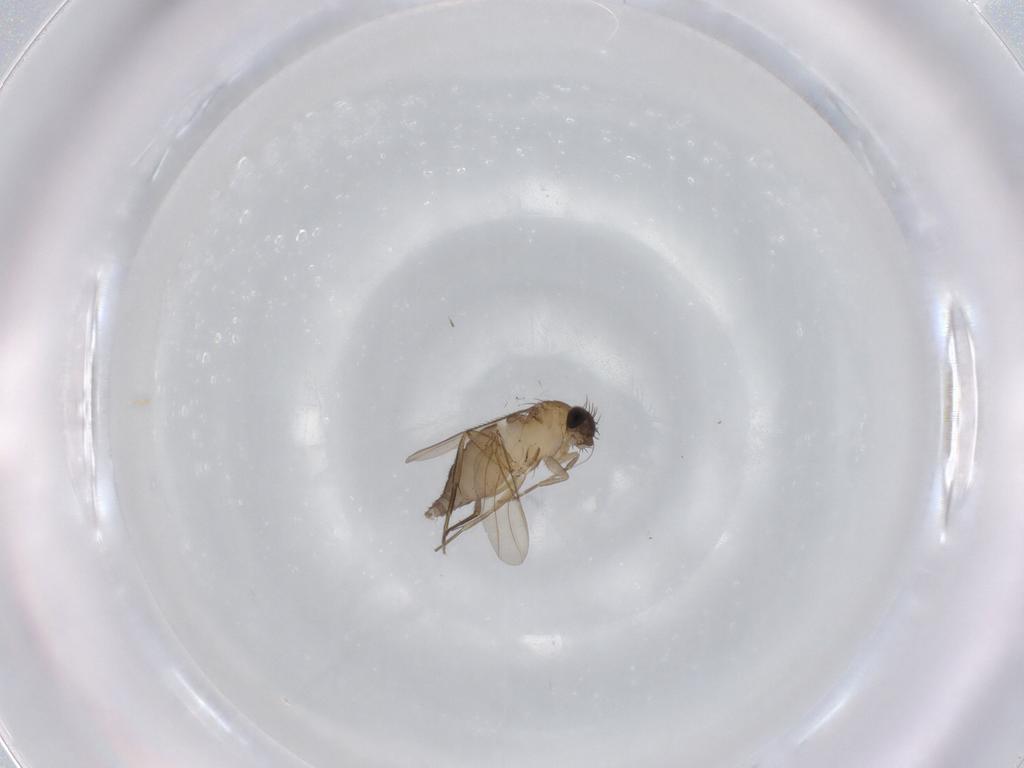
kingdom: Animalia
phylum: Arthropoda
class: Insecta
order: Diptera
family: Phoridae
